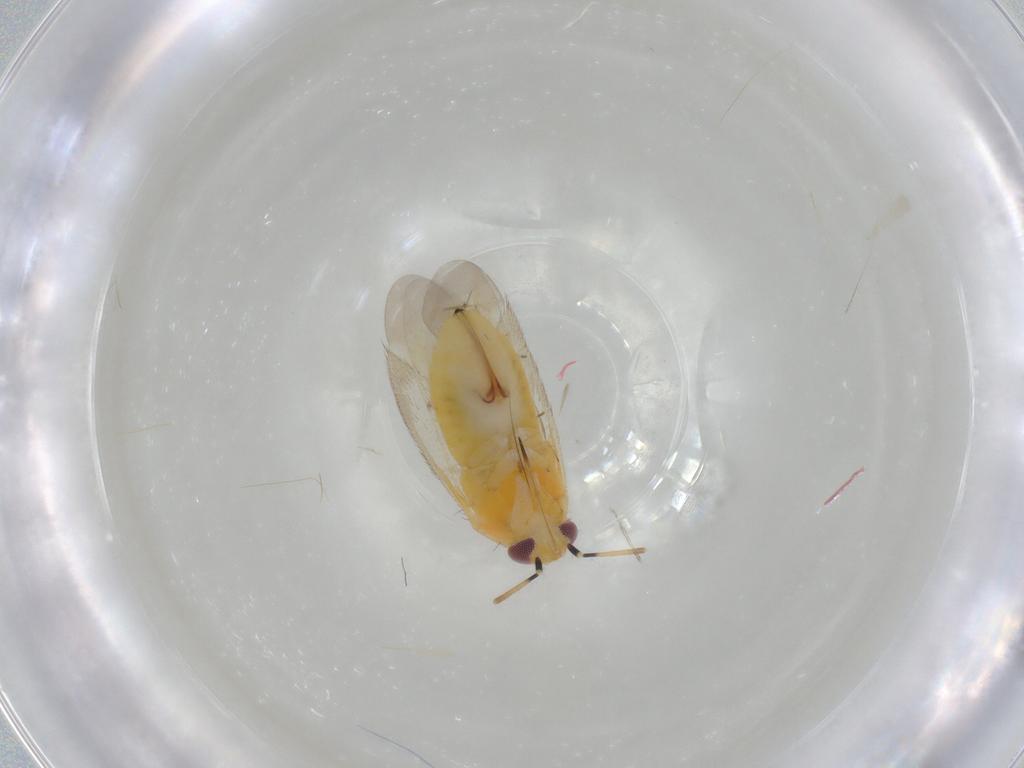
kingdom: Animalia
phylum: Arthropoda
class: Insecta
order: Diptera
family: Cecidomyiidae
